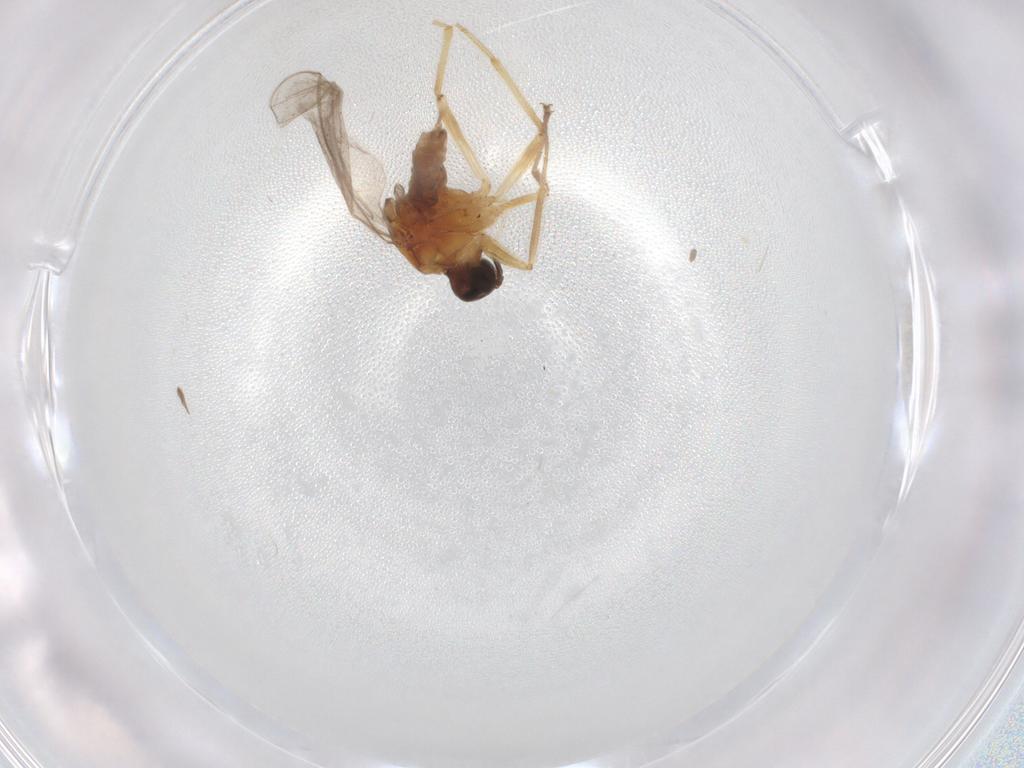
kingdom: Animalia
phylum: Arthropoda
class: Insecta
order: Diptera
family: Ceratopogonidae
